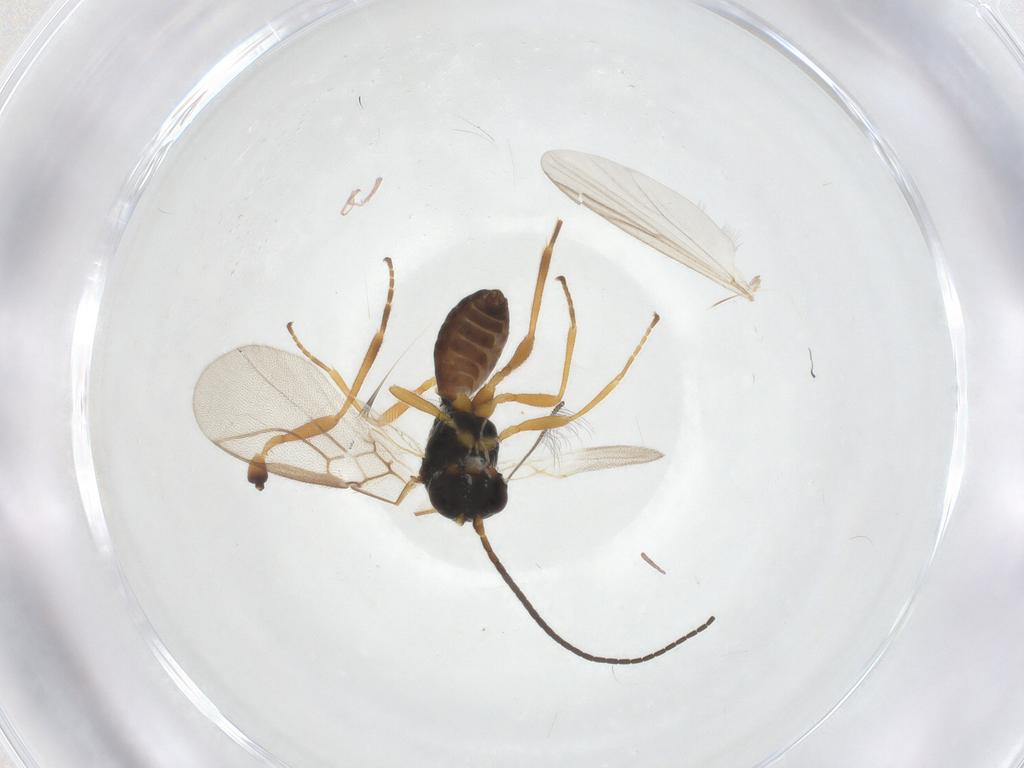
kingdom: Animalia
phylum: Arthropoda
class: Insecta
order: Hymenoptera
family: Braconidae
